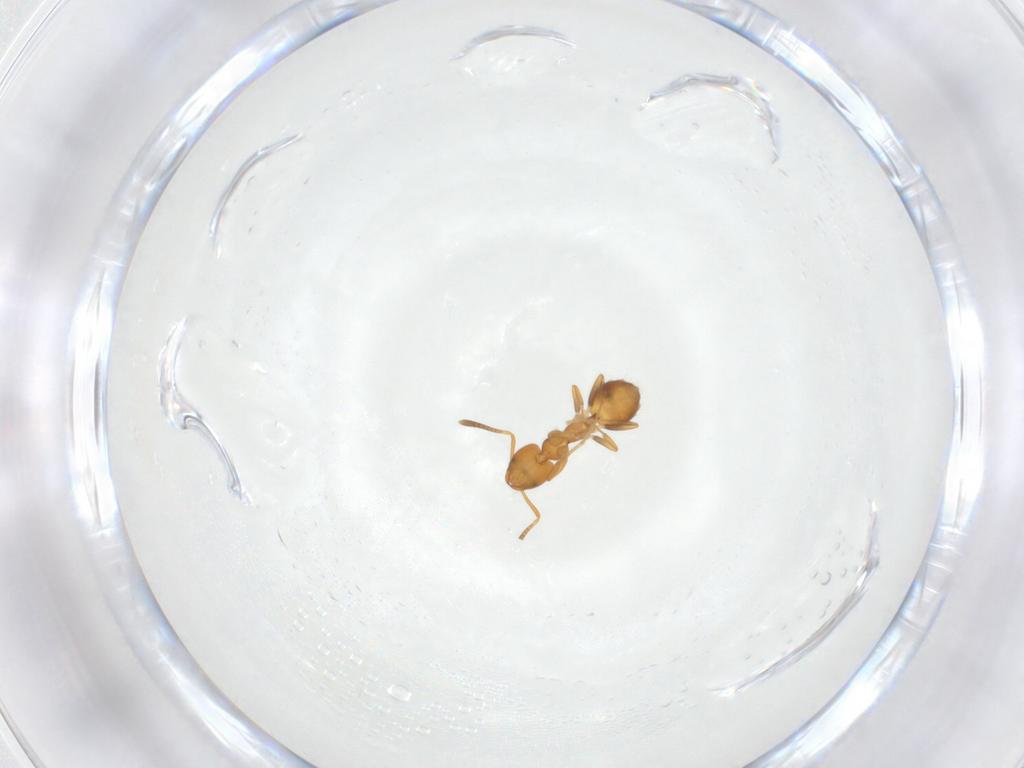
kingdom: Animalia
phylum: Arthropoda
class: Insecta
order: Hymenoptera
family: Formicidae
